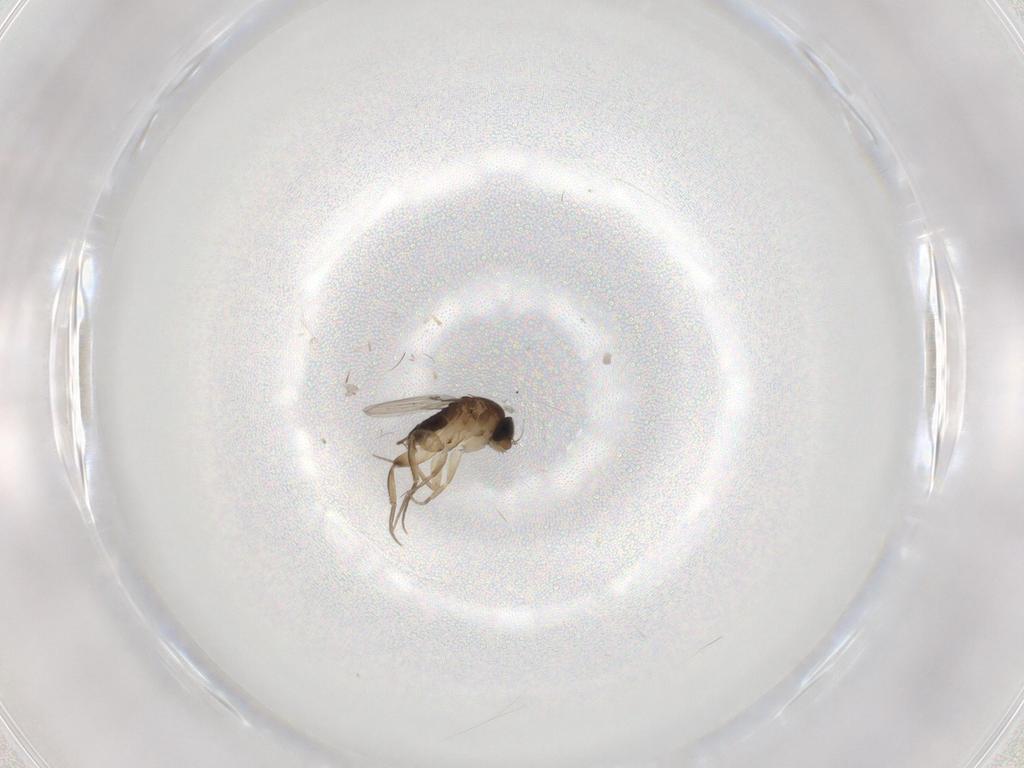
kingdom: Animalia
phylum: Arthropoda
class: Insecta
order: Diptera
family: Phoridae
